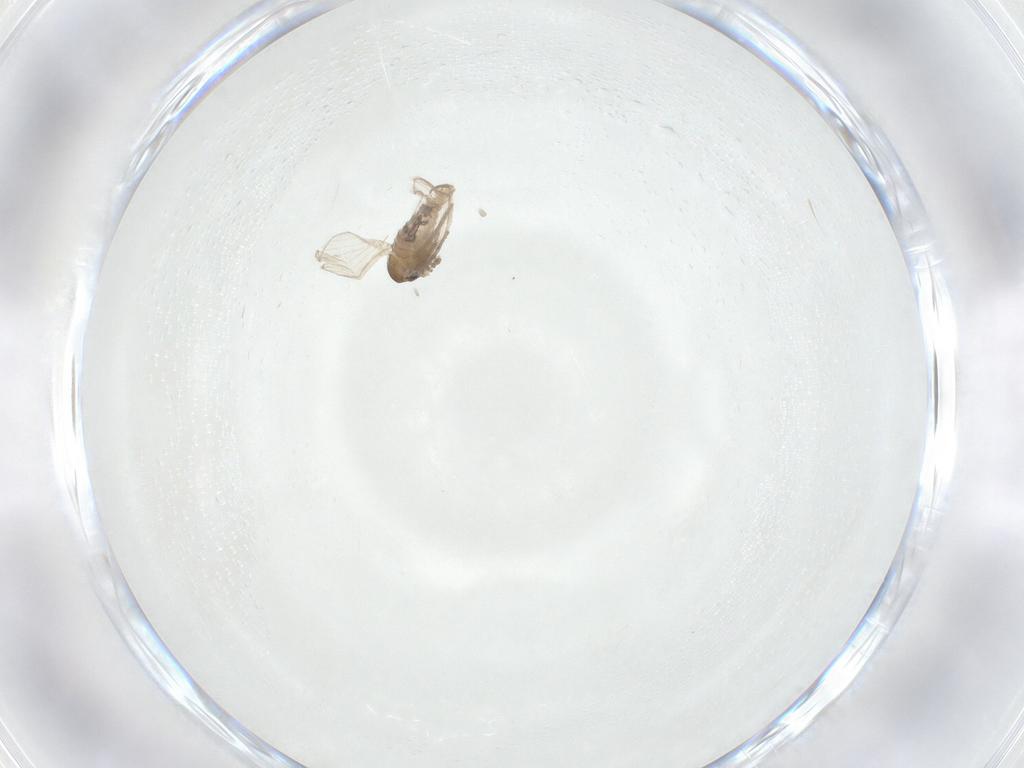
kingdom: Animalia
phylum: Arthropoda
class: Insecta
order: Diptera
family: Psychodidae
